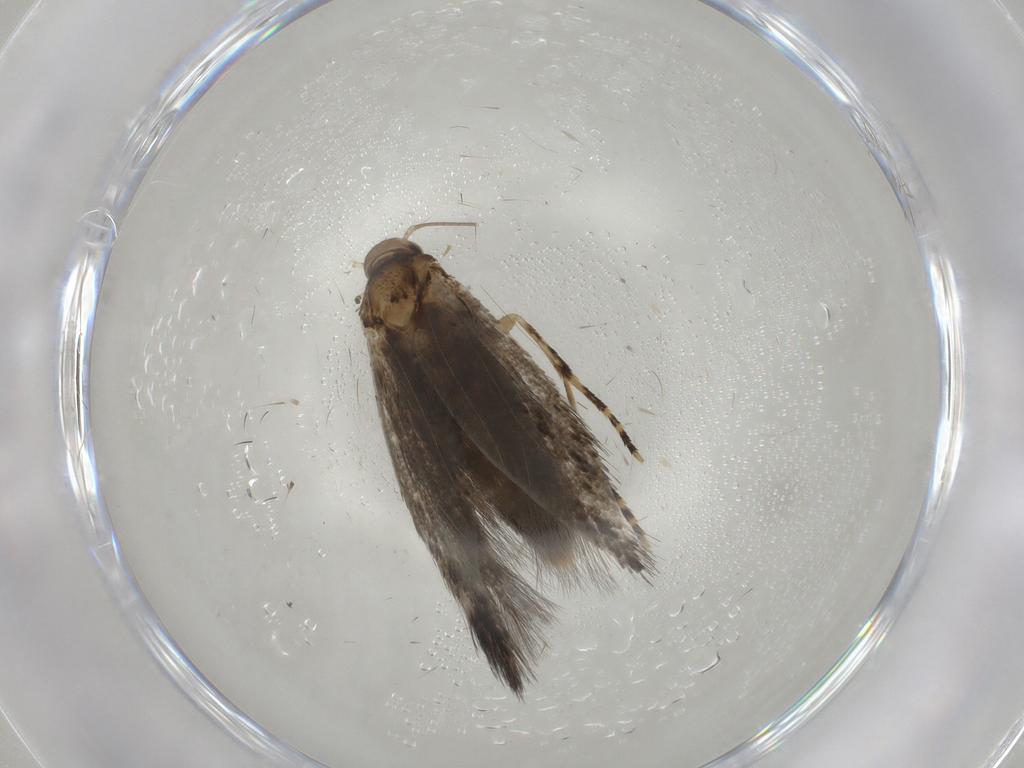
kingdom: Animalia
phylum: Arthropoda
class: Insecta
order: Lepidoptera
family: Elachistidae
